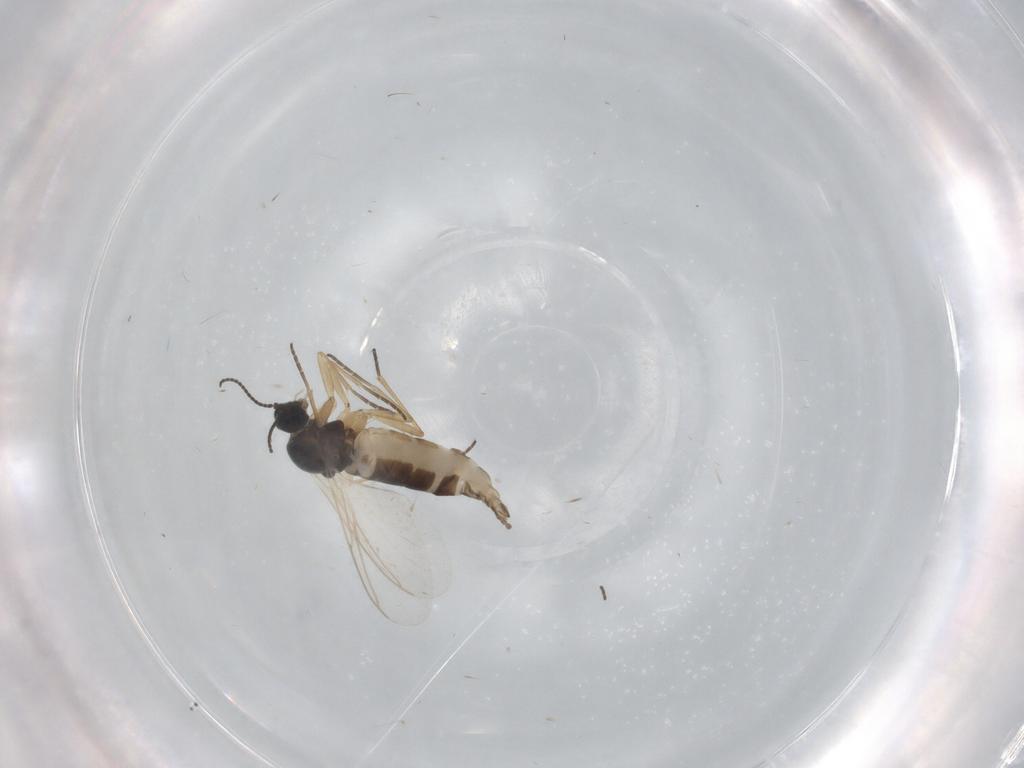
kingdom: Animalia
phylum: Arthropoda
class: Insecta
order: Diptera
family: Sciaridae
